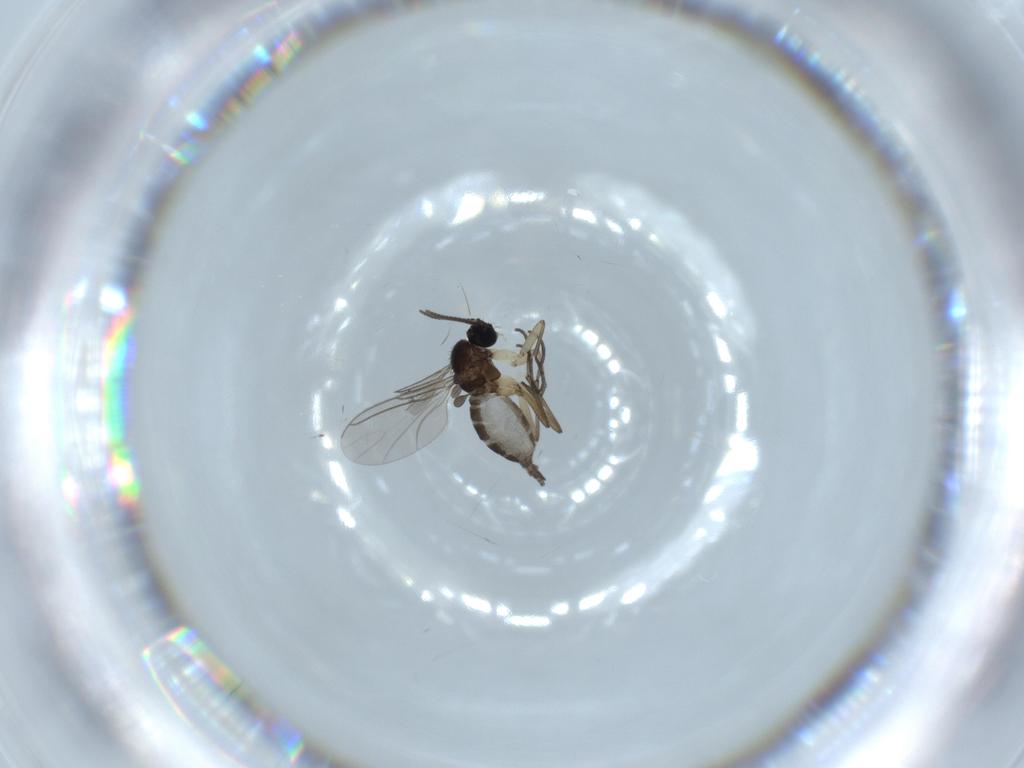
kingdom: Animalia
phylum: Arthropoda
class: Insecta
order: Diptera
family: Sciaridae
